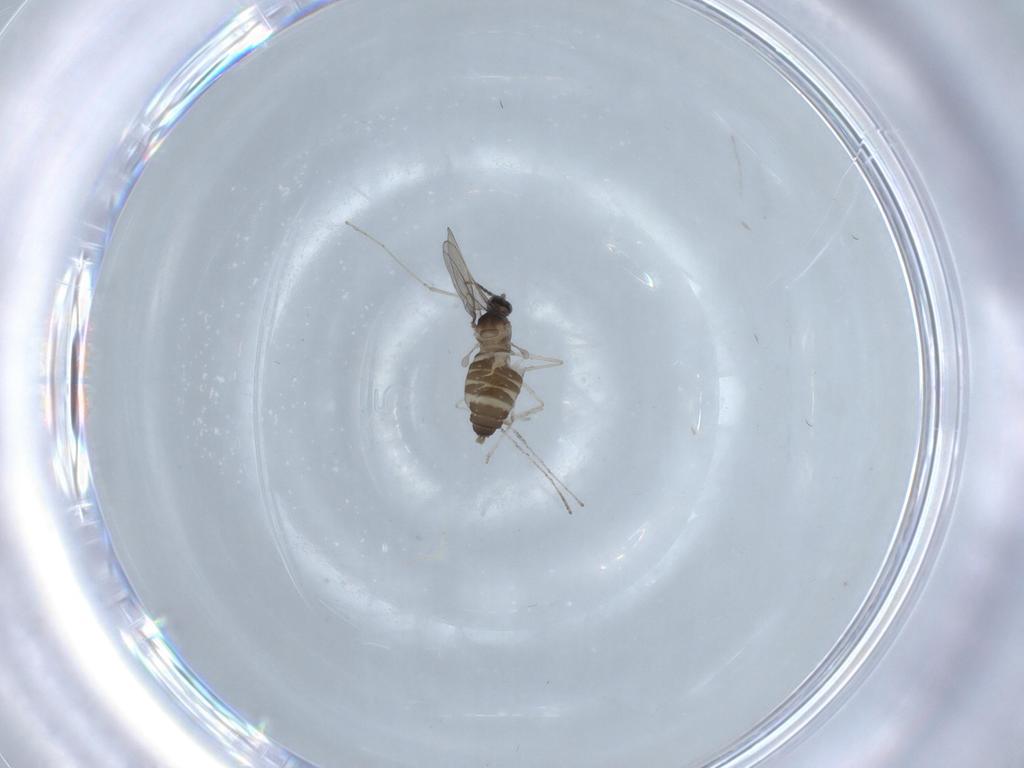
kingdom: Animalia
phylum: Arthropoda
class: Insecta
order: Diptera
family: Cecidomyiidae
